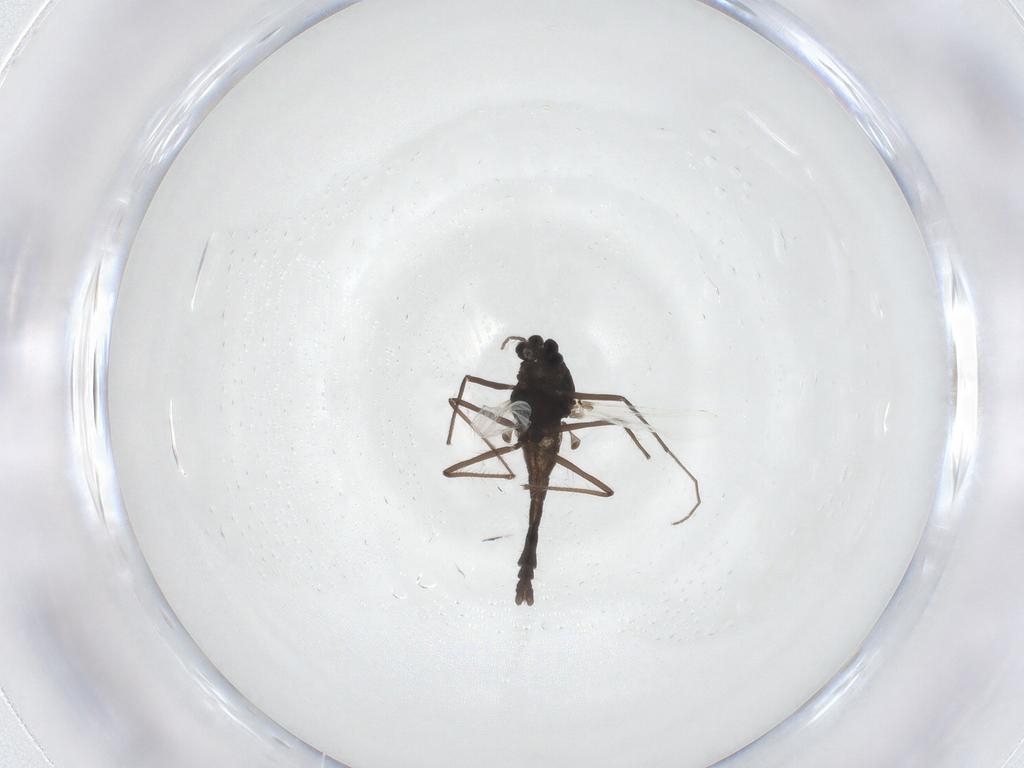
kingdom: Animalia
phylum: Arthropoda
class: Insecta
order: Diptera
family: Chironomidae
